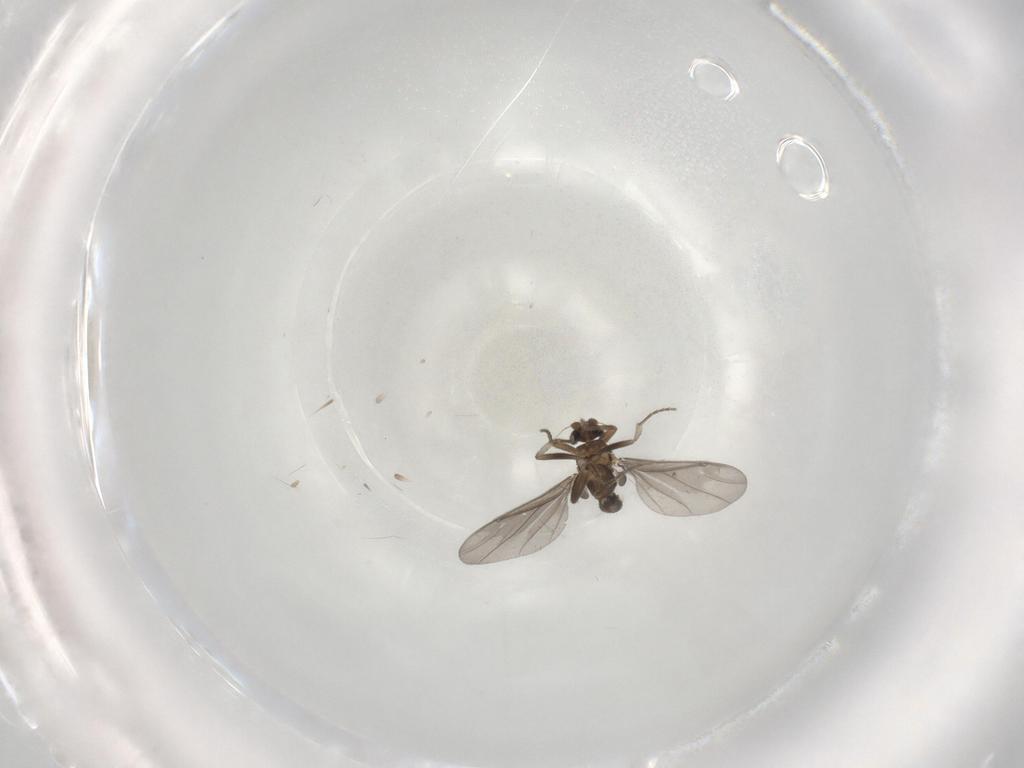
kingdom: Animalia
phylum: Arthropoda
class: Insecta
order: Diptera
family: Phoridae
